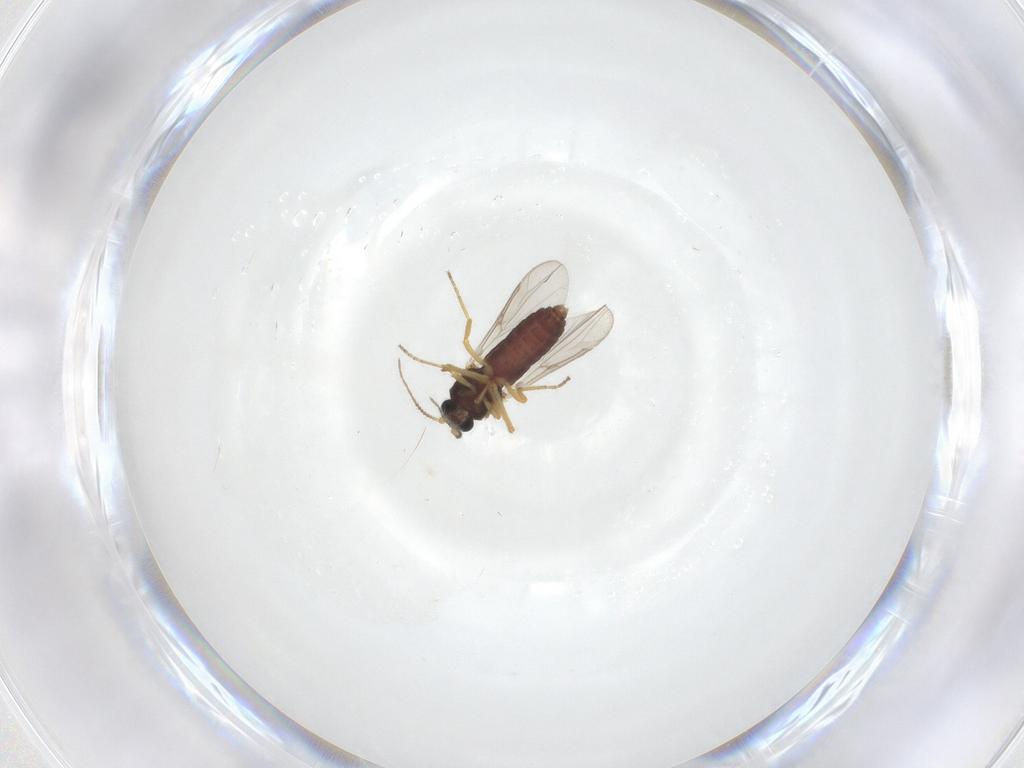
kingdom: Animalia
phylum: Arthropoda
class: Insecta
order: Diptera
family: Ceratopogonidae
